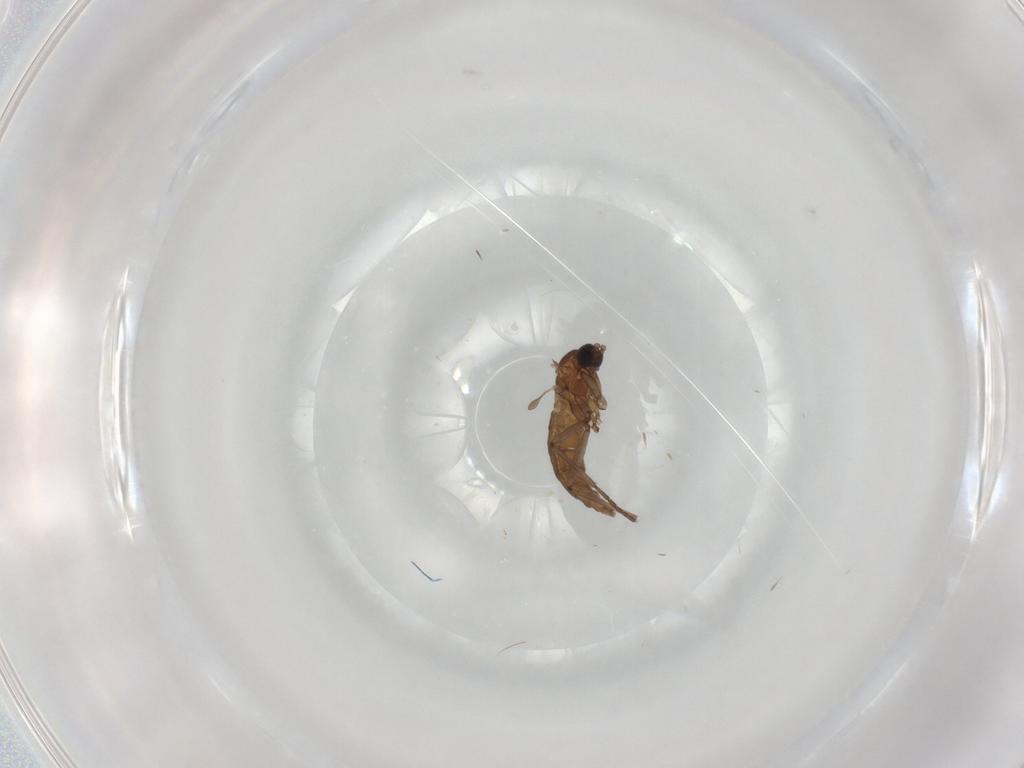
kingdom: Animalia
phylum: Arthropoda
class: Insecta
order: Diptera
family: Sciaridae
